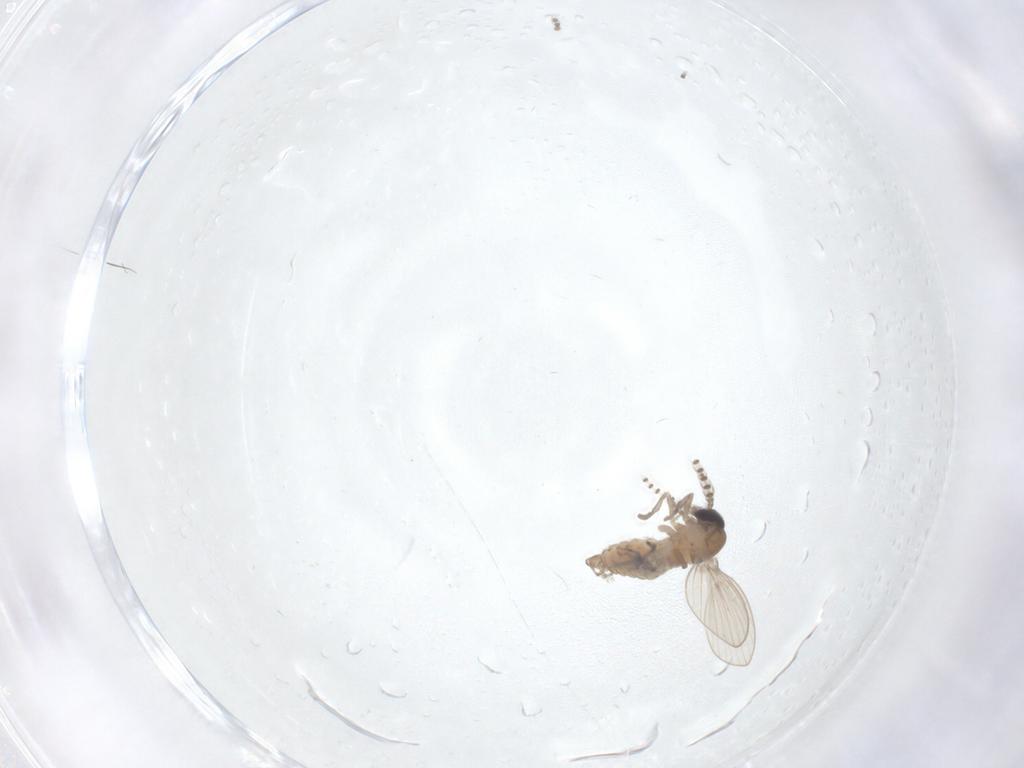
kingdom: Animalia
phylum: Arthropoda
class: Insecta
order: Diptera
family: Psychodidae
